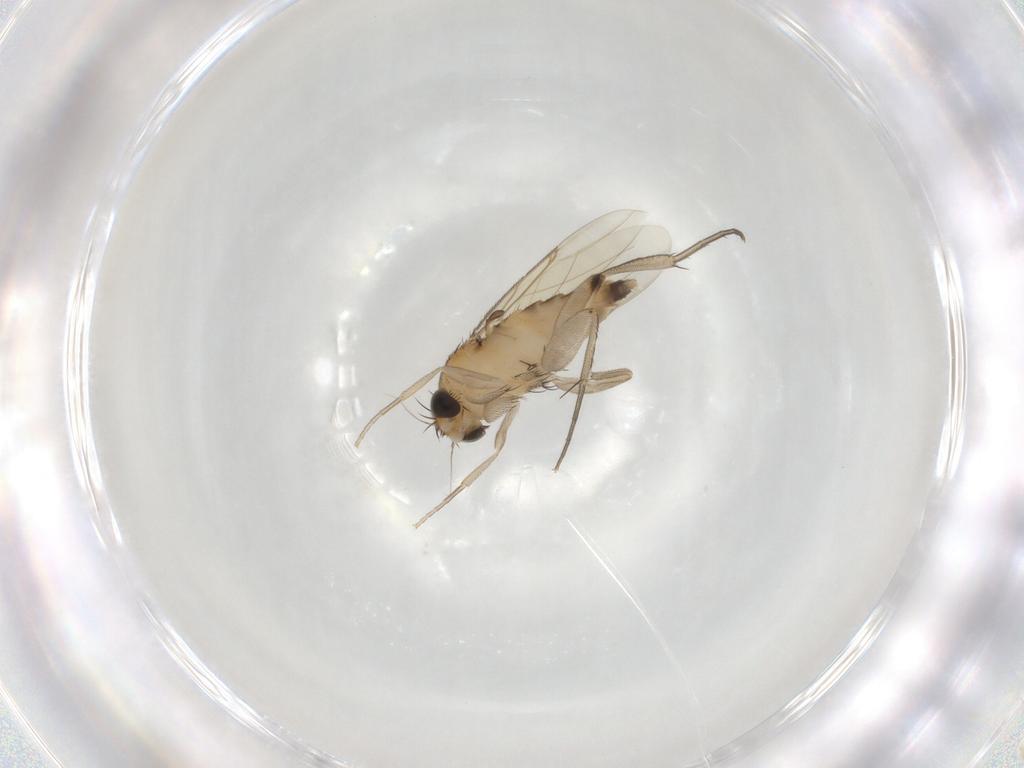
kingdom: Animalia
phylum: Arthropoda
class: Insecta
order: Diptera
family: Phoridae
